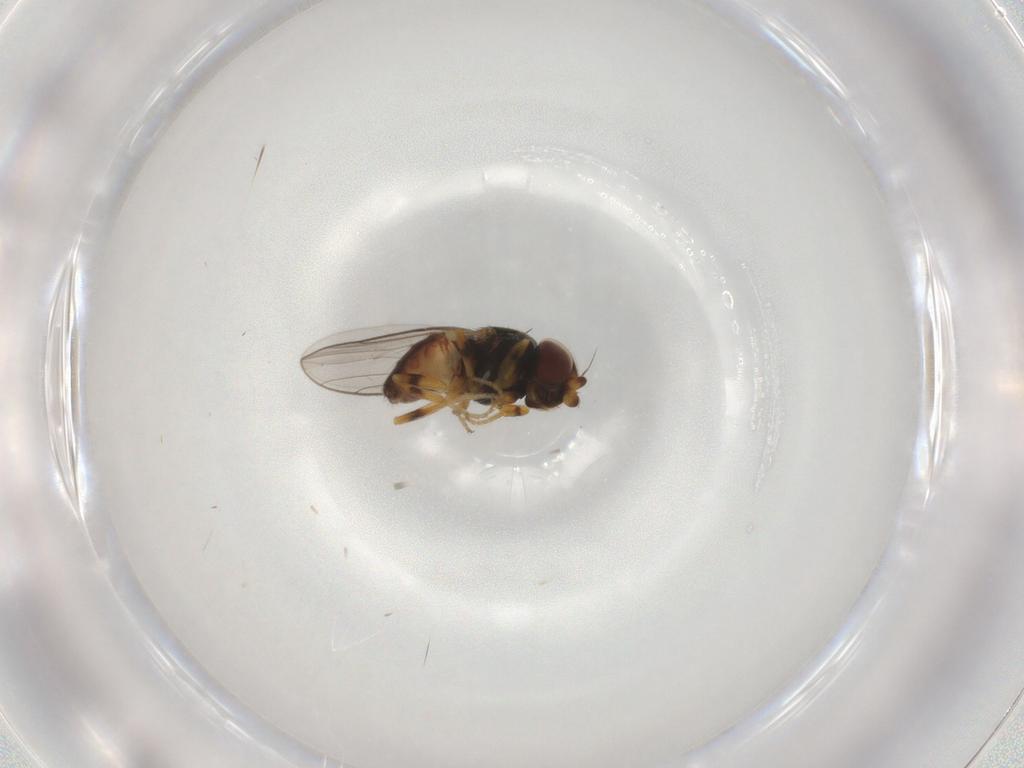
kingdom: Animalia
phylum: Arthropoda
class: Insecta
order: Diptera
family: Chloropidae
